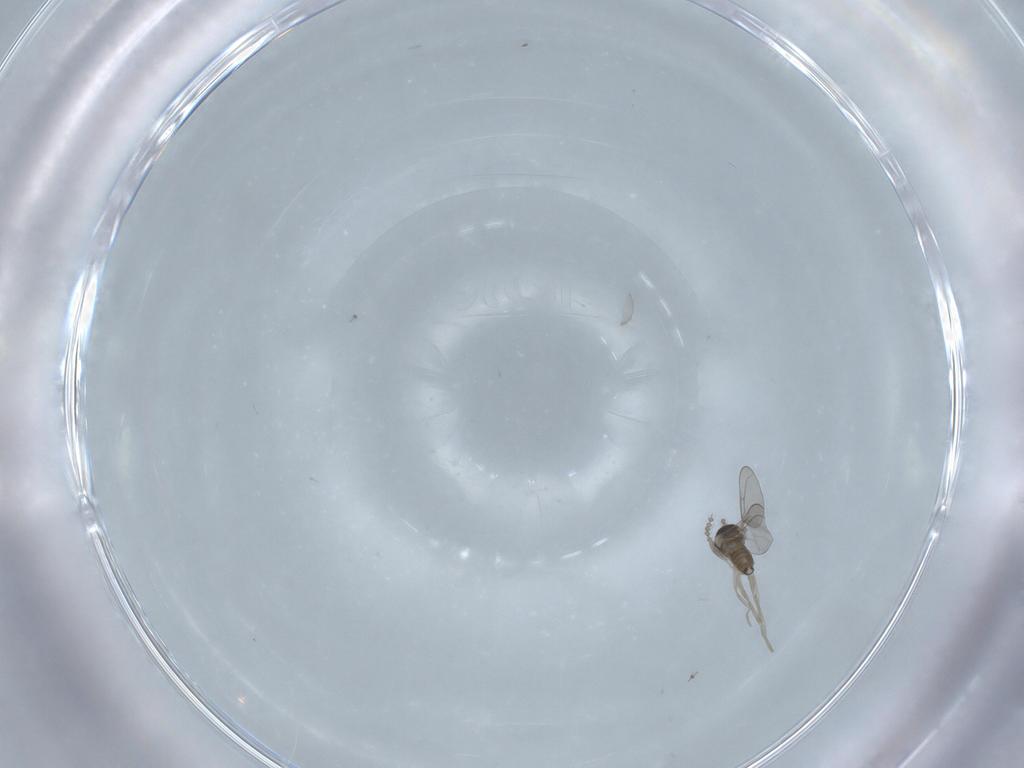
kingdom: Animalia
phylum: Arthropoda
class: Insecta
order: Diptera
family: Cecidomyiidae
